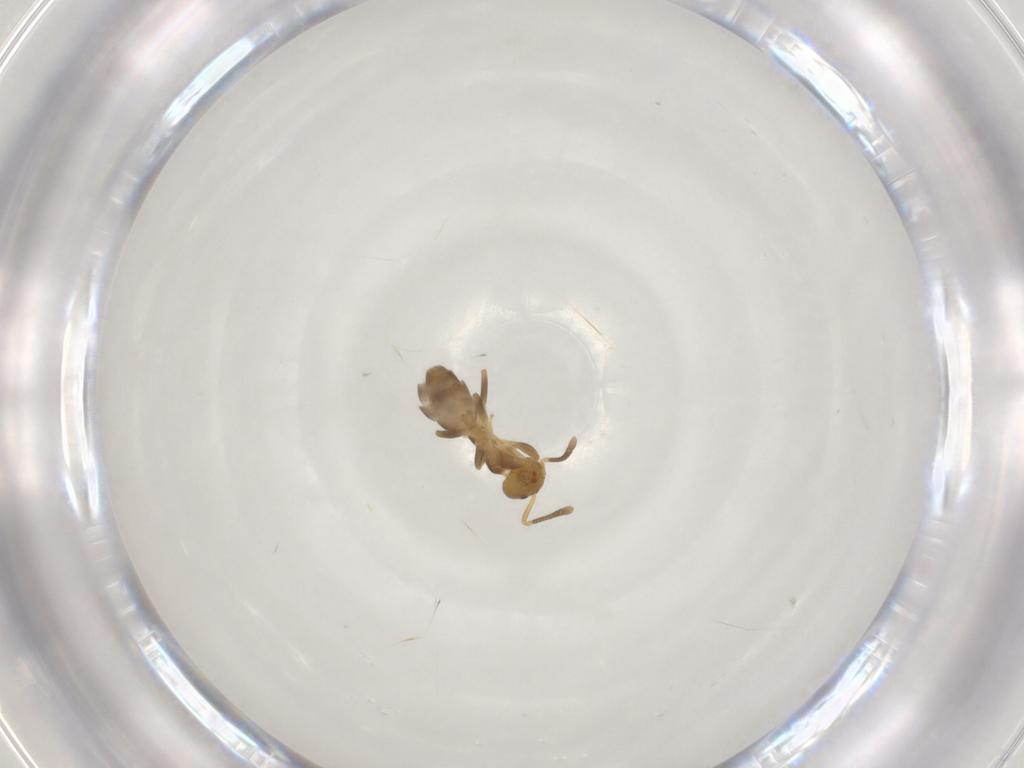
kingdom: Animalia
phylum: Arthropoda
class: Insecta
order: Hymenoptera
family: Formicidae
